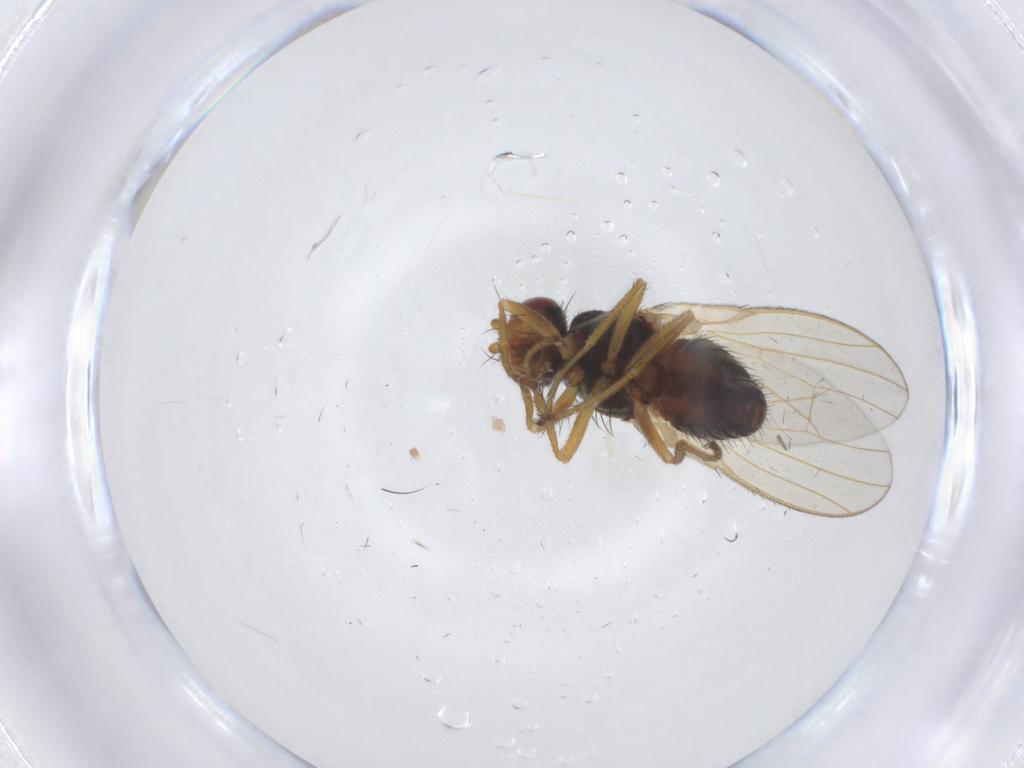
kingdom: Animalia
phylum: Arthropoda
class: Insecta
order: Diptera
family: Heleomyzidae
